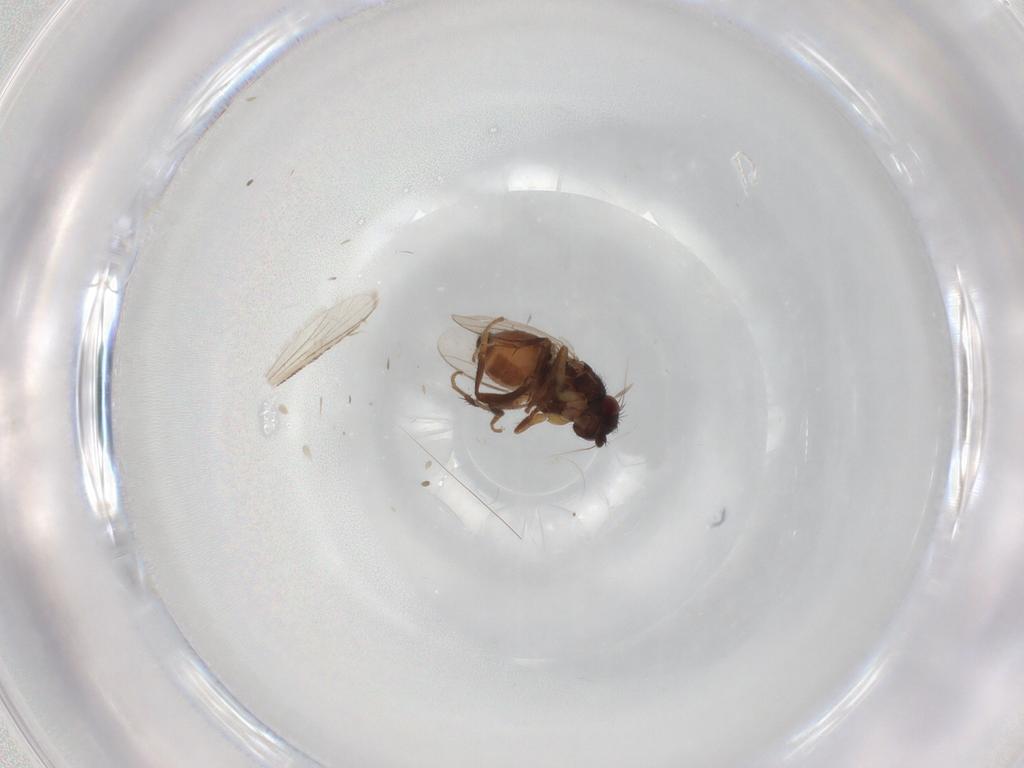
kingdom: Animalia
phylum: Arthropoda
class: Insecta
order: Diptera
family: Sphaeroceridae
